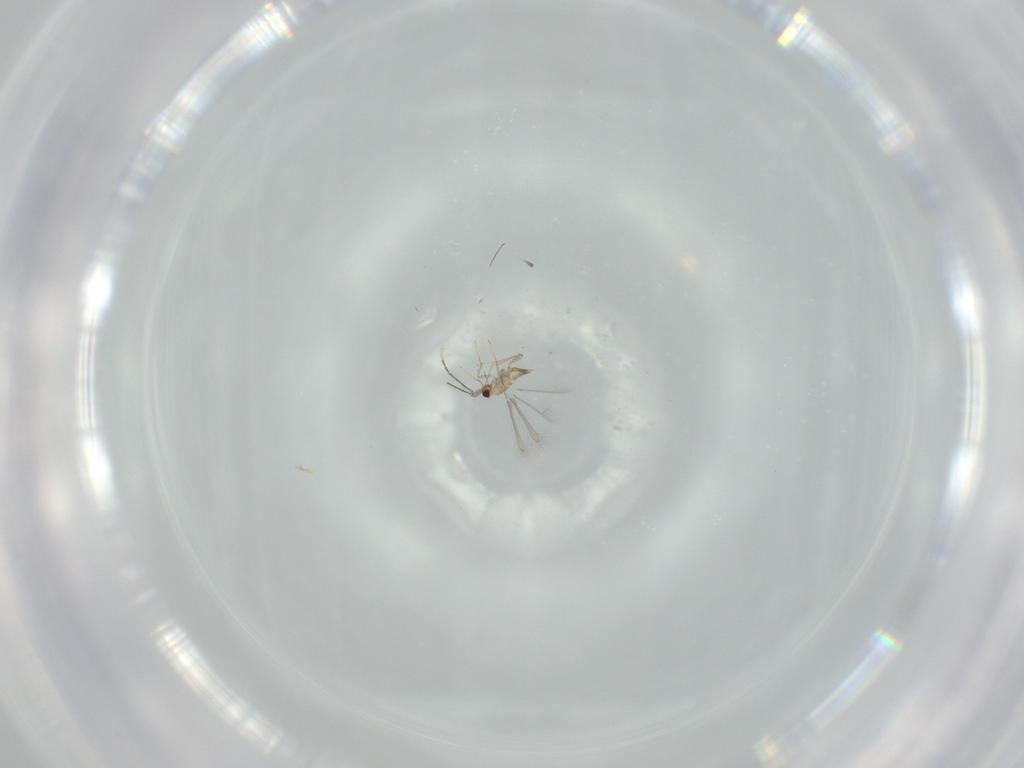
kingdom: Animalia
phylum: Arthropoda
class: Insecta
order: Hymenoptera
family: Mymaridae
